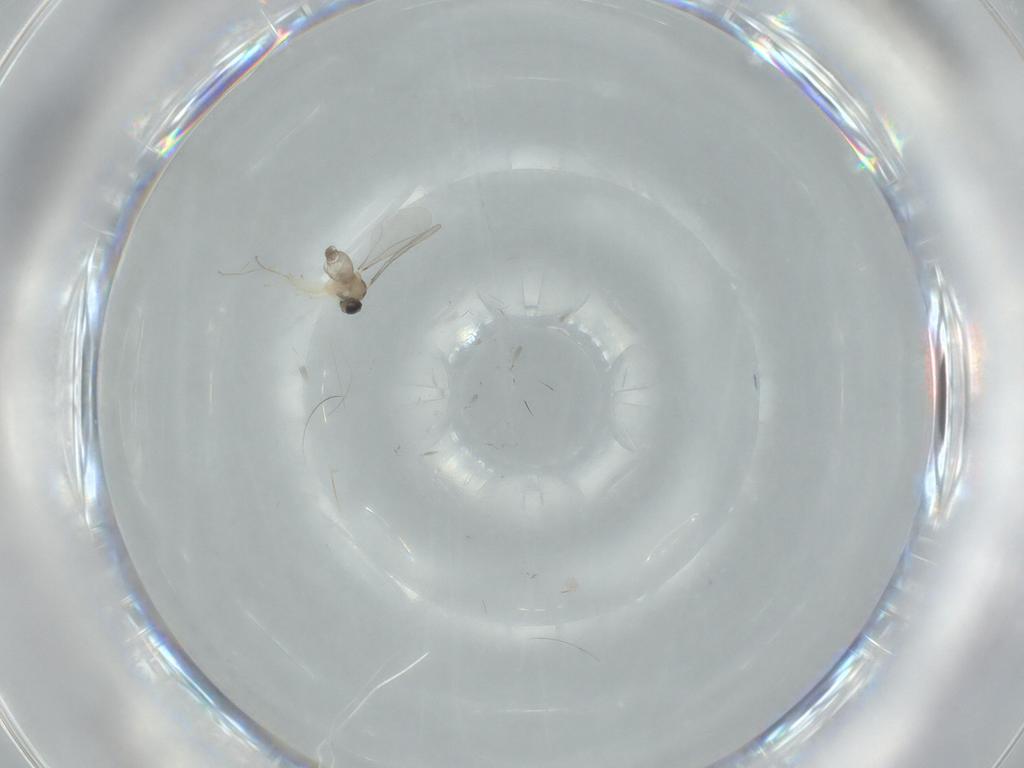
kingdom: Animalia
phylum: Arthropoda
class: Insecta
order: Diptera
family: Cecidomyiidae
